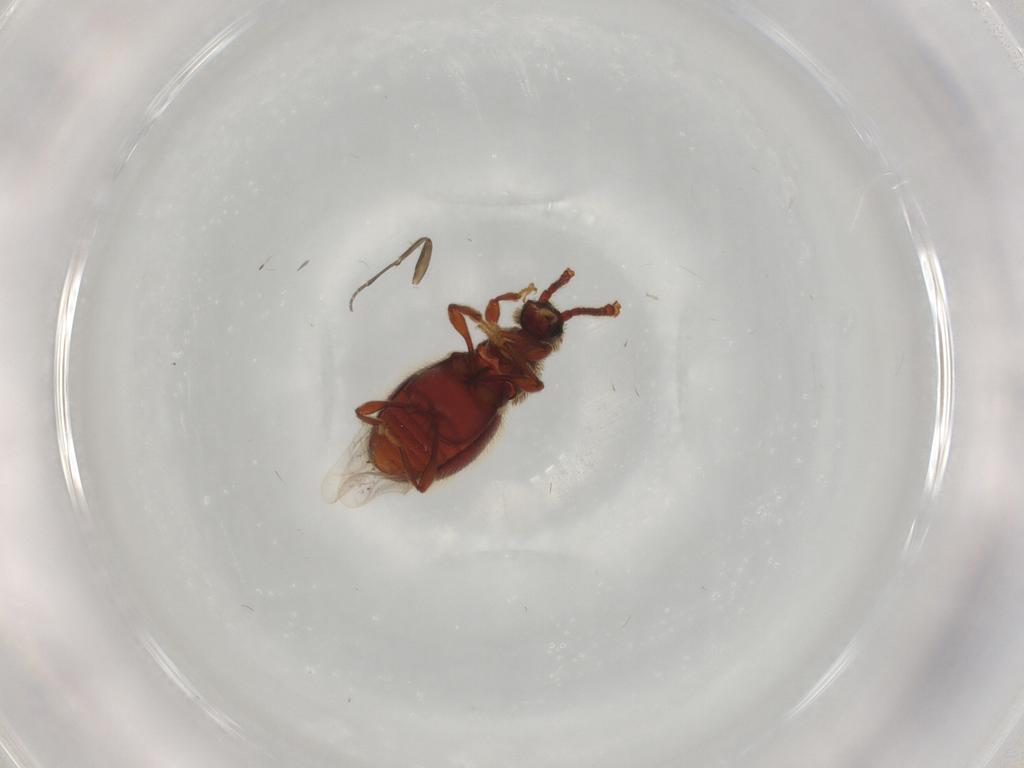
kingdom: Animalia
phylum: Arthropoda
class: Insecta
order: Coleoptera
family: Staphylinidae
